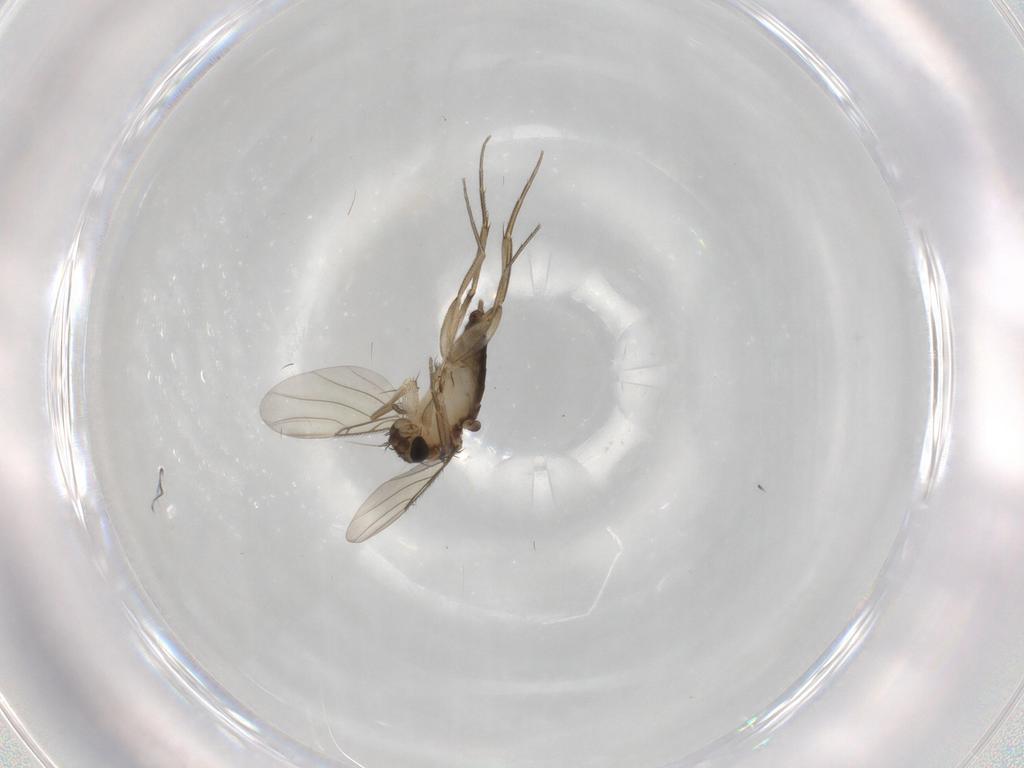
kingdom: Animalia
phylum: Arthropoda
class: Insecta
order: Diptera
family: Phoridae
